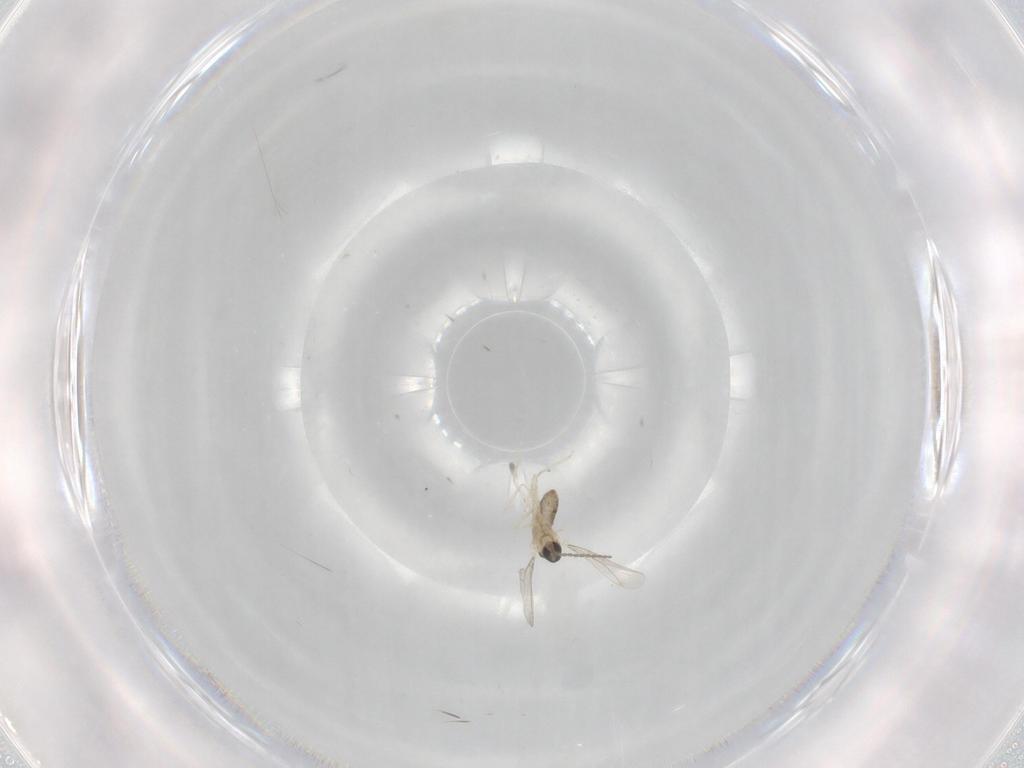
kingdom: Animalia
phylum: Arthropoda
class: Insecta
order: Diptera
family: Cecidomyiidae
